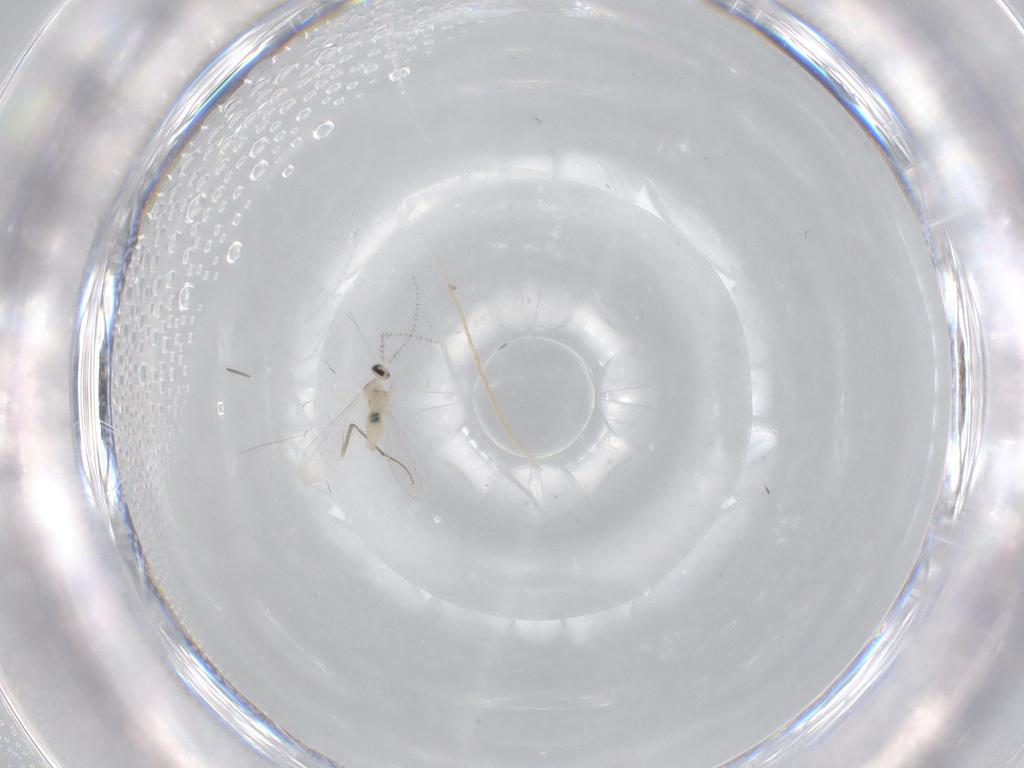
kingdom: Animalia
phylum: Arthropoda
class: Insecta
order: Diptera
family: Cecidomyiidae
